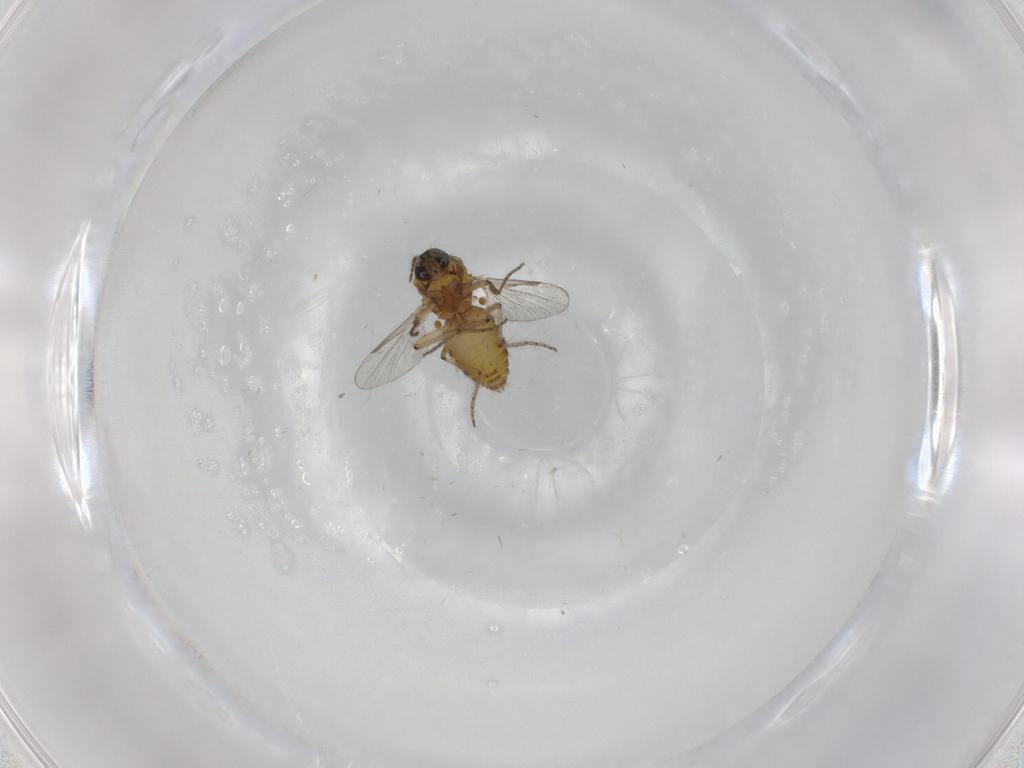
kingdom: Animalia
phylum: Arthropoda
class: Insecta
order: Diptera
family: Ceratopogonidae
